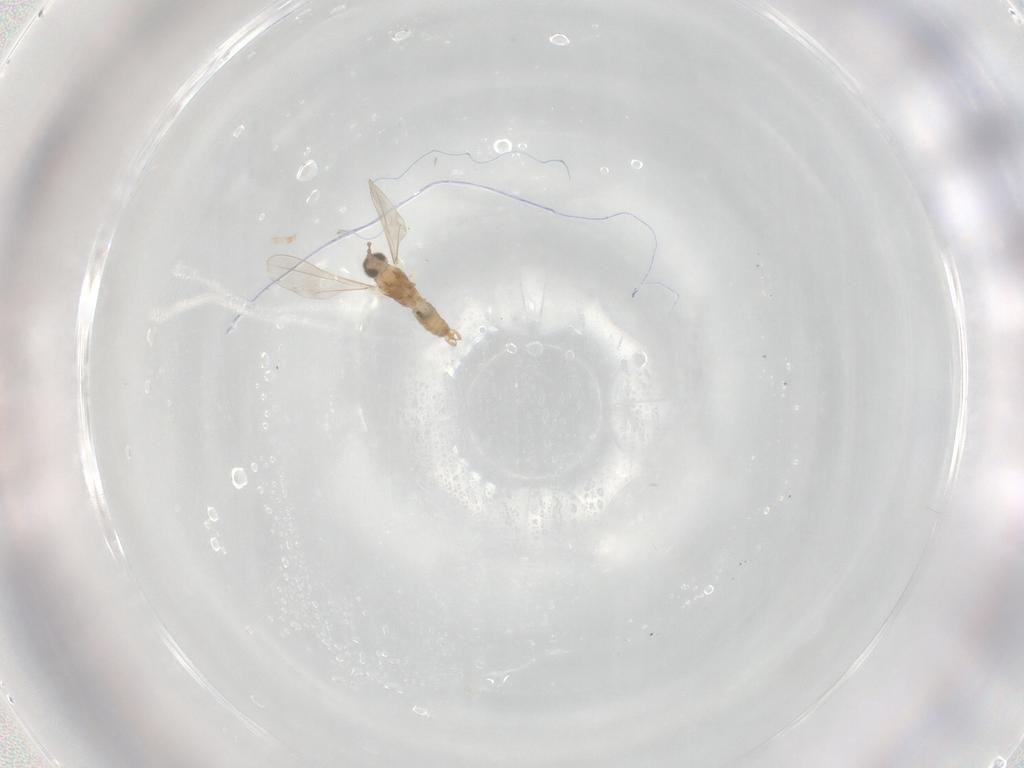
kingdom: Animalia
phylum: Arthropoda
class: Insecta
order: Diptera
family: Cecidomyiidae
